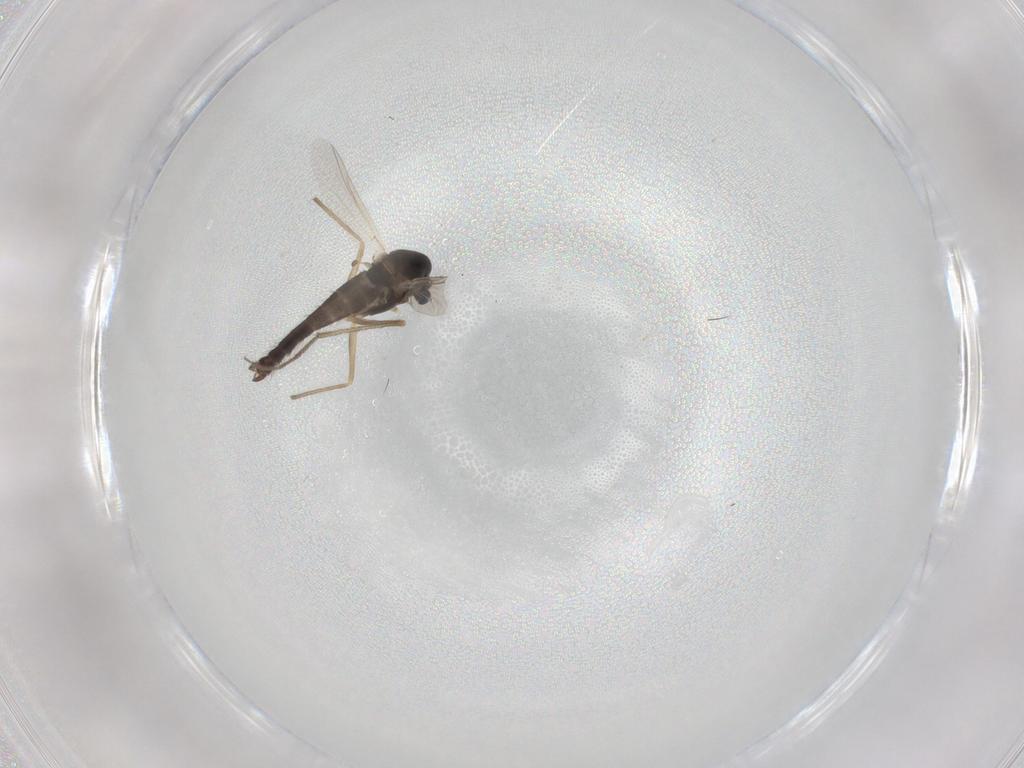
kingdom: Animalia
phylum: Arthropoda
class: Insecta
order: Diptera
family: Chironomidae
